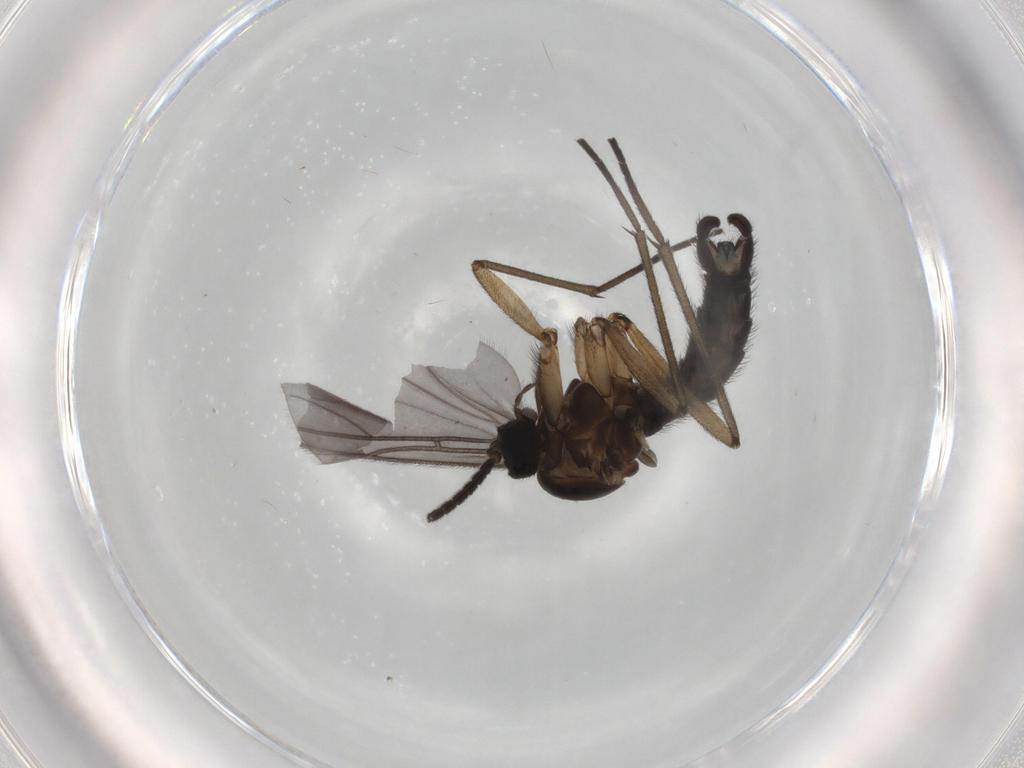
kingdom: Animalia
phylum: Arthropoda
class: Insecta
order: Diptera
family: Sciaridae
